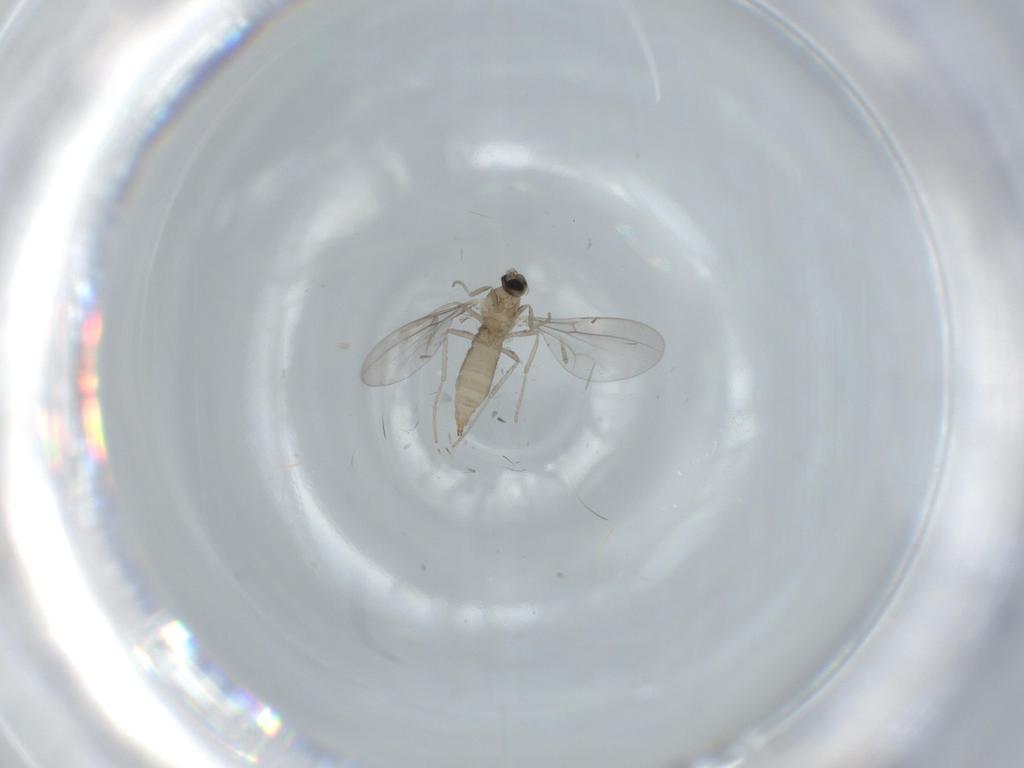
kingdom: Animalia
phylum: Arthropoda
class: Insecta
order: Diptera
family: Cecidomyiidae
